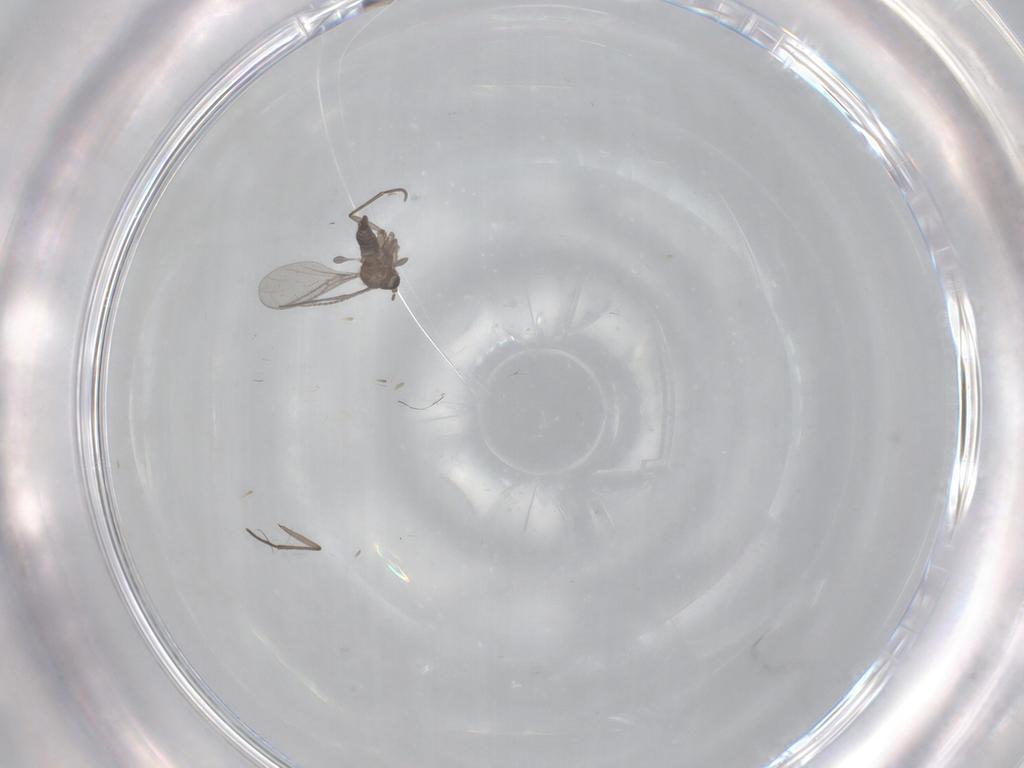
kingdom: Animalia
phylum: Arthropoda
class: Insecta
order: Diptera
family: Sciaridae
